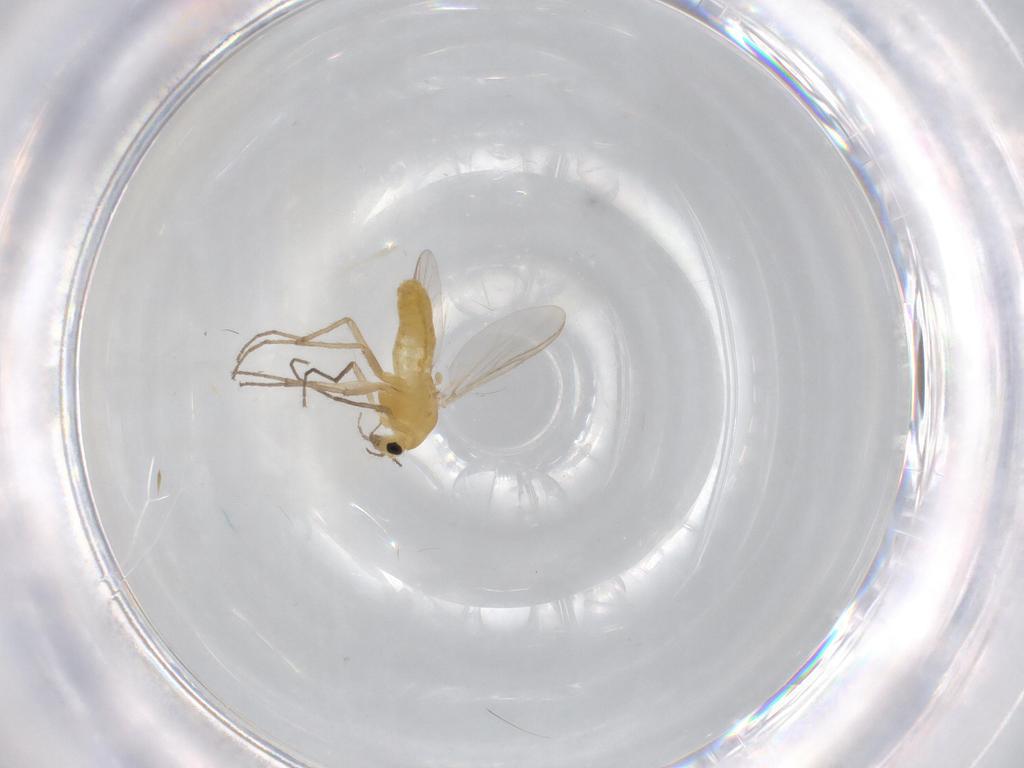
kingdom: Animalia
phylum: Arthropoda
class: Insecta
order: Diptera
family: Chironomidae
